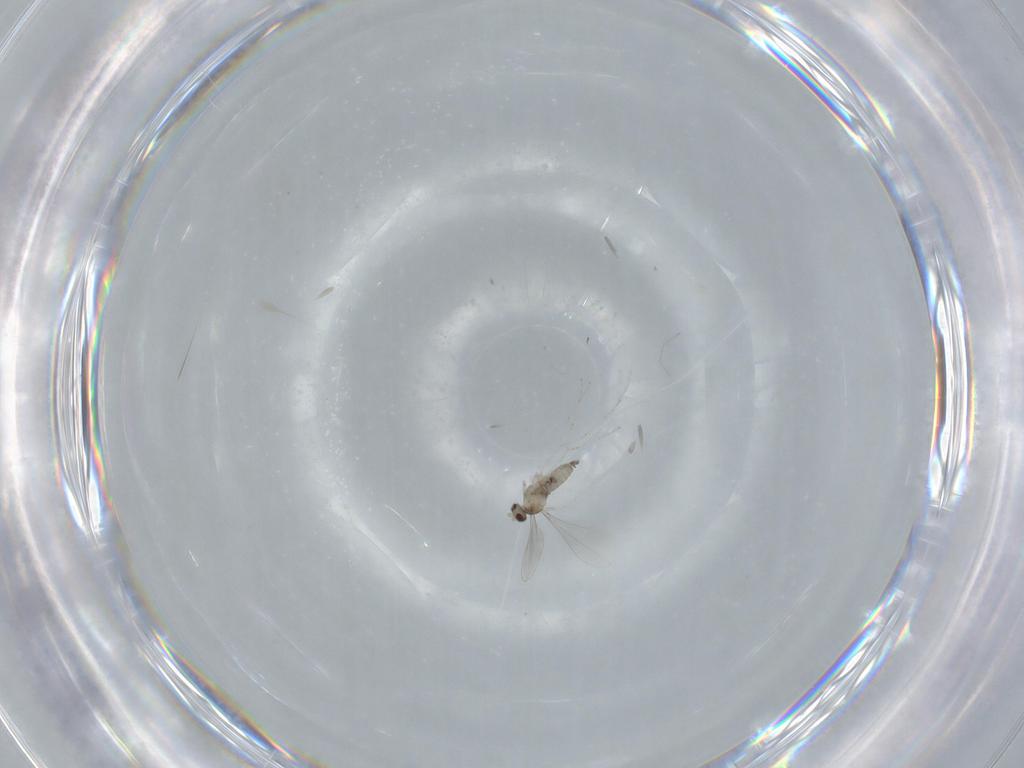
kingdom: Animalia
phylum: Arthropoda
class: Insecta
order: Diptera
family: Cecidomyiidae
